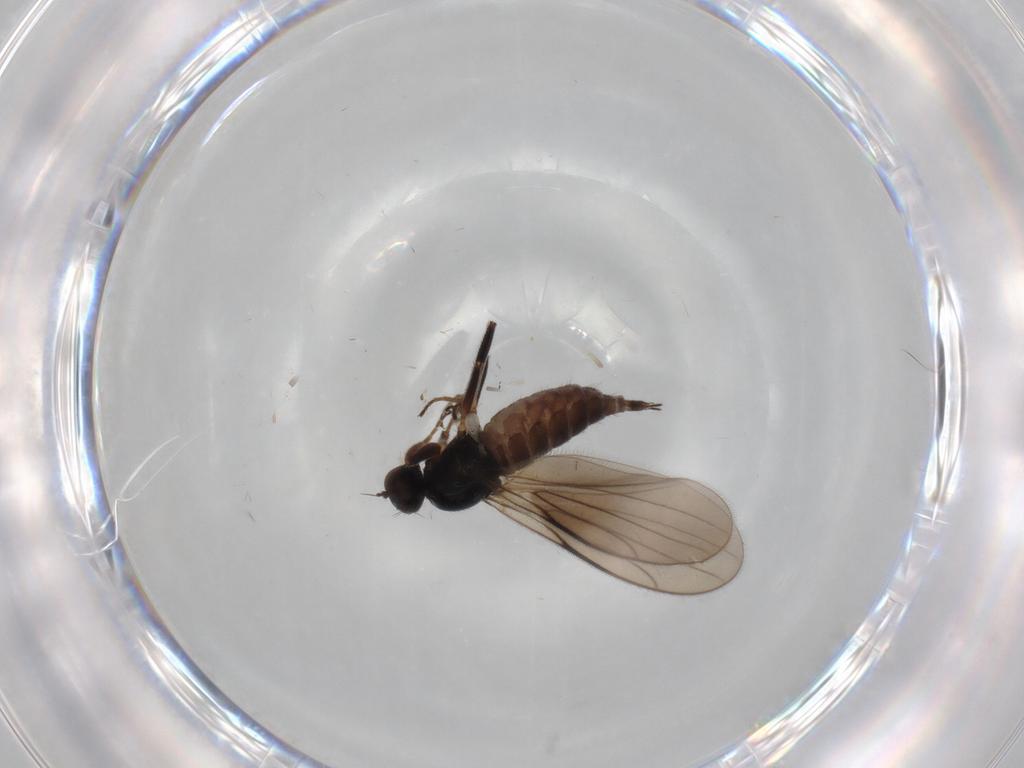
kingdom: Animalia
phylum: Arthropoda
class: Insecta
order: Diptera
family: Hybotidae
